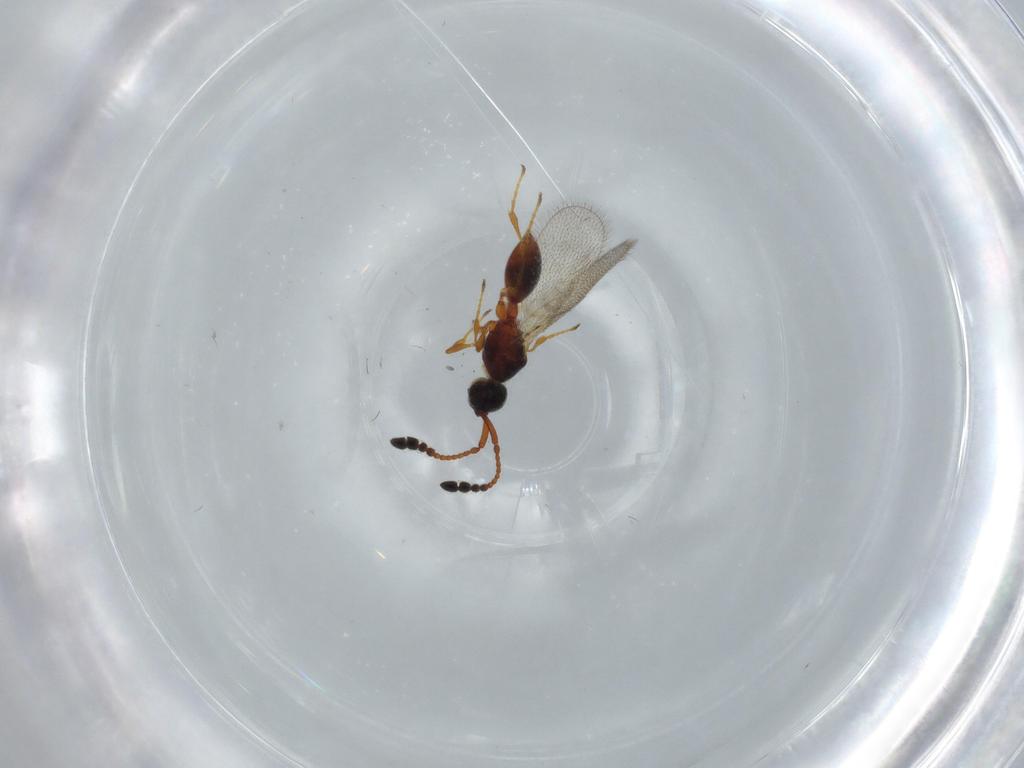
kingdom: Animalia
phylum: Arthropoda
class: Insecta
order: Hymenoptera
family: Diapriidae
